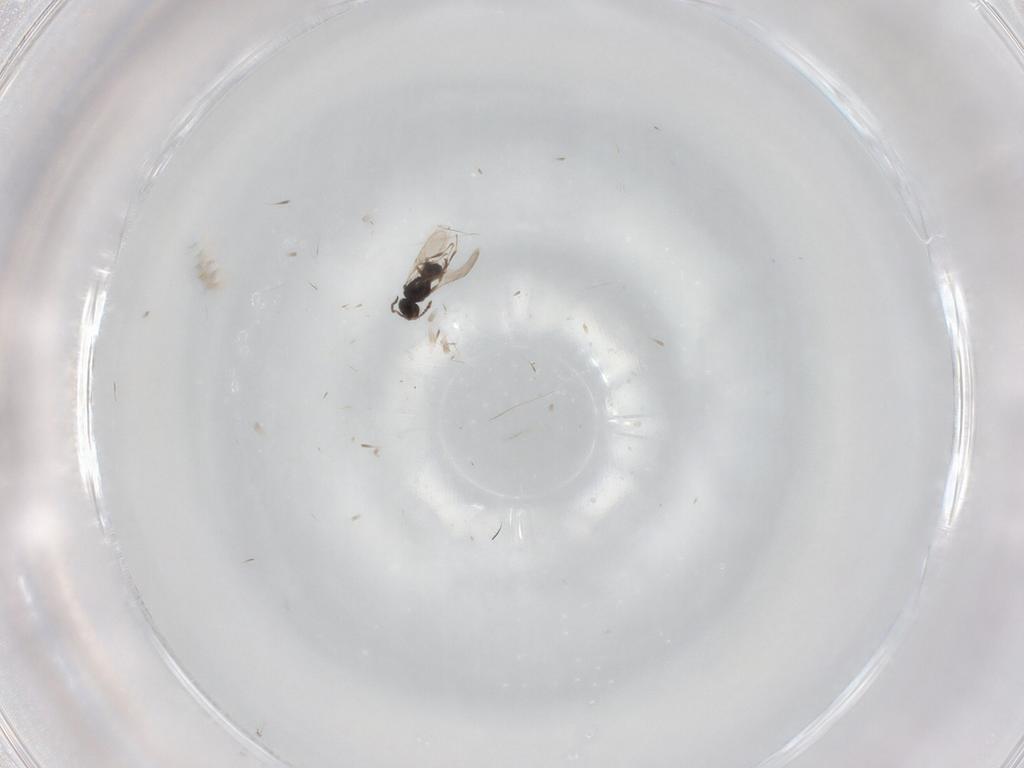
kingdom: Animalia
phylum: Arthropoda
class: Insecta
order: Hymenoptera
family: Scelionidae
